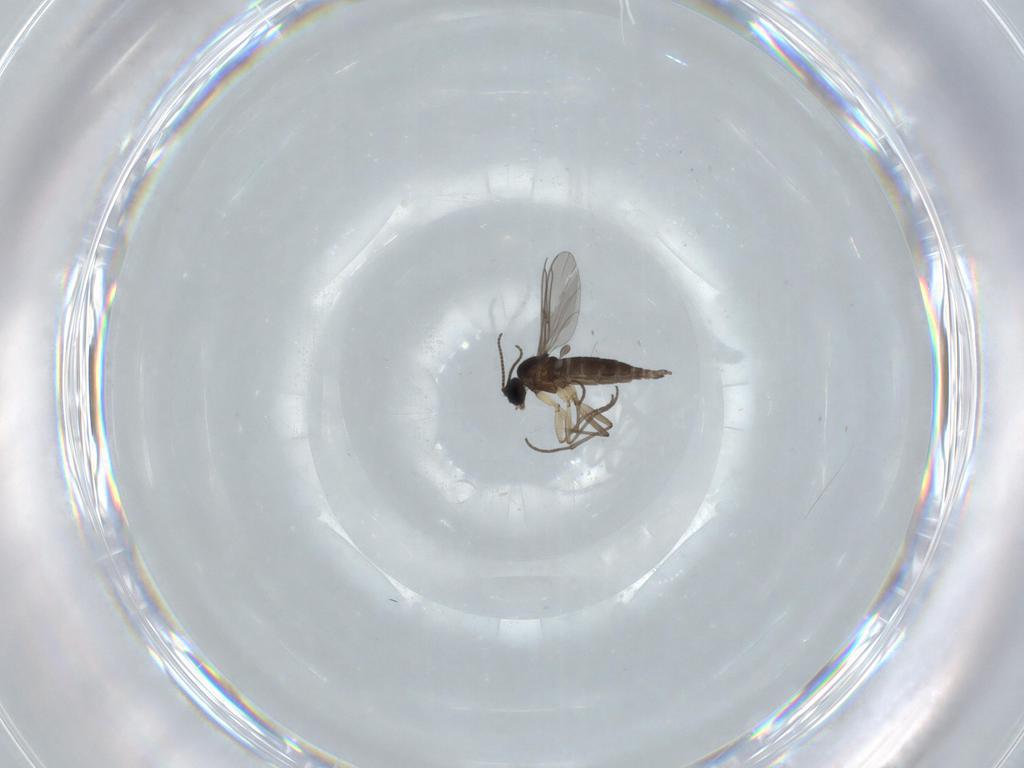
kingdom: Animalia
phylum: Arthropoda
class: Insecta
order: Diptera
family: Sciaridae
